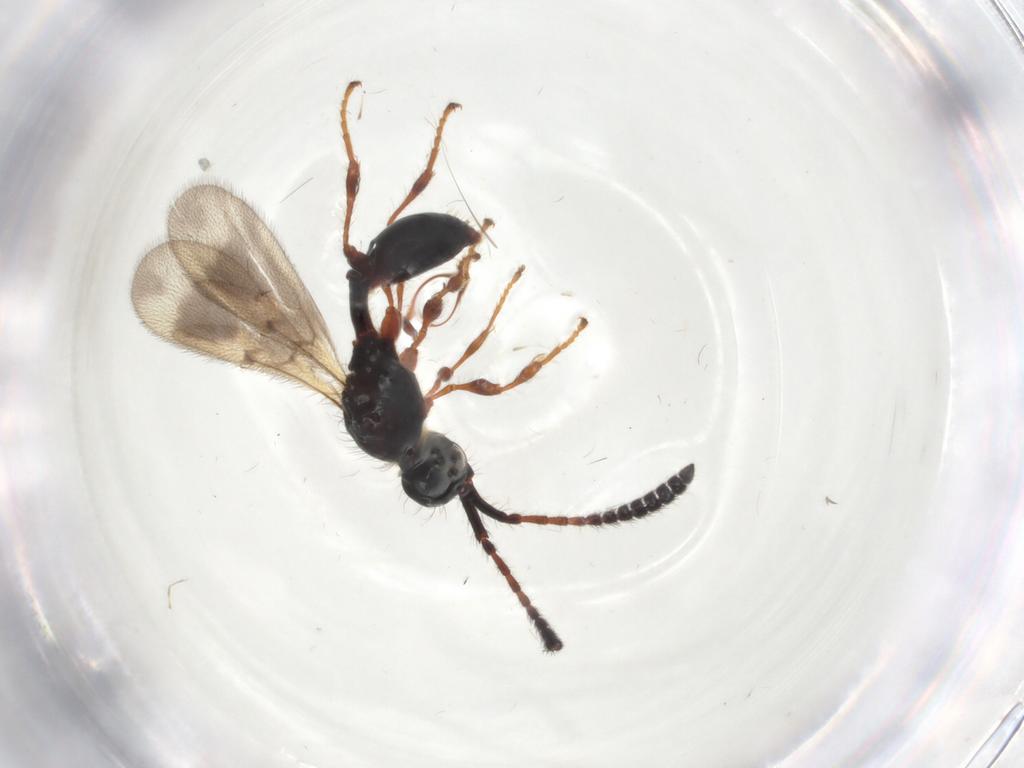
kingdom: Animalia
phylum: Arthropoda
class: Insecta
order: Hymenoptera
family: Diapriidae
